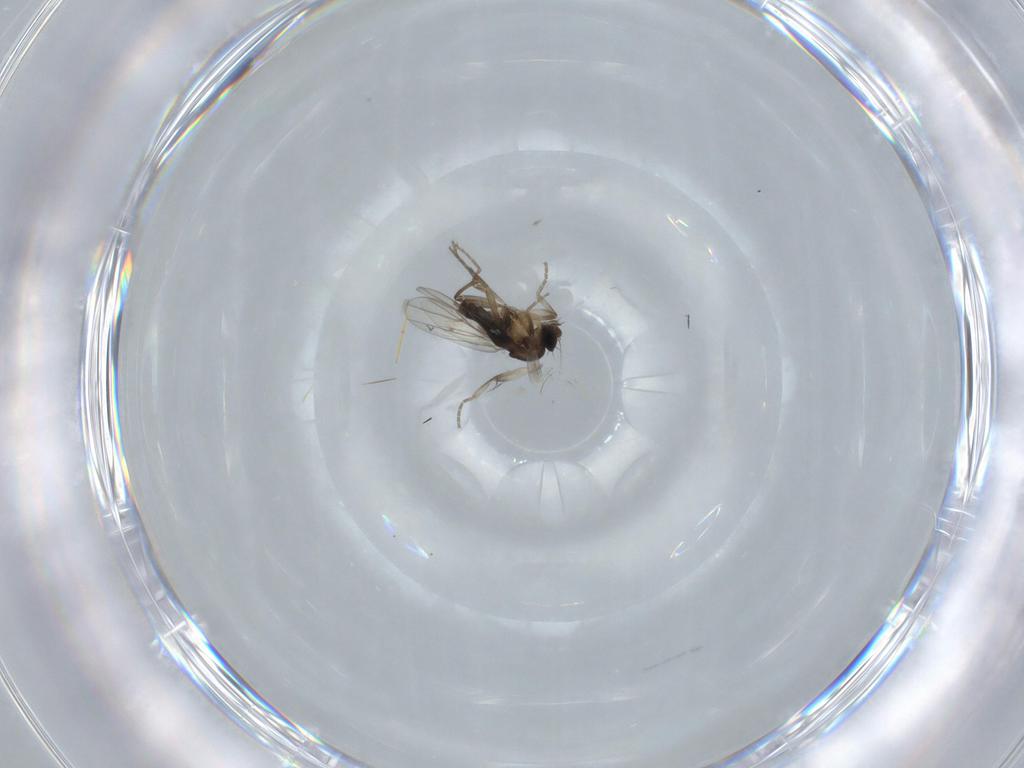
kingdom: Animalia
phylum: Arthropoda
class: Insecta
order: Diptera
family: Phoridae
